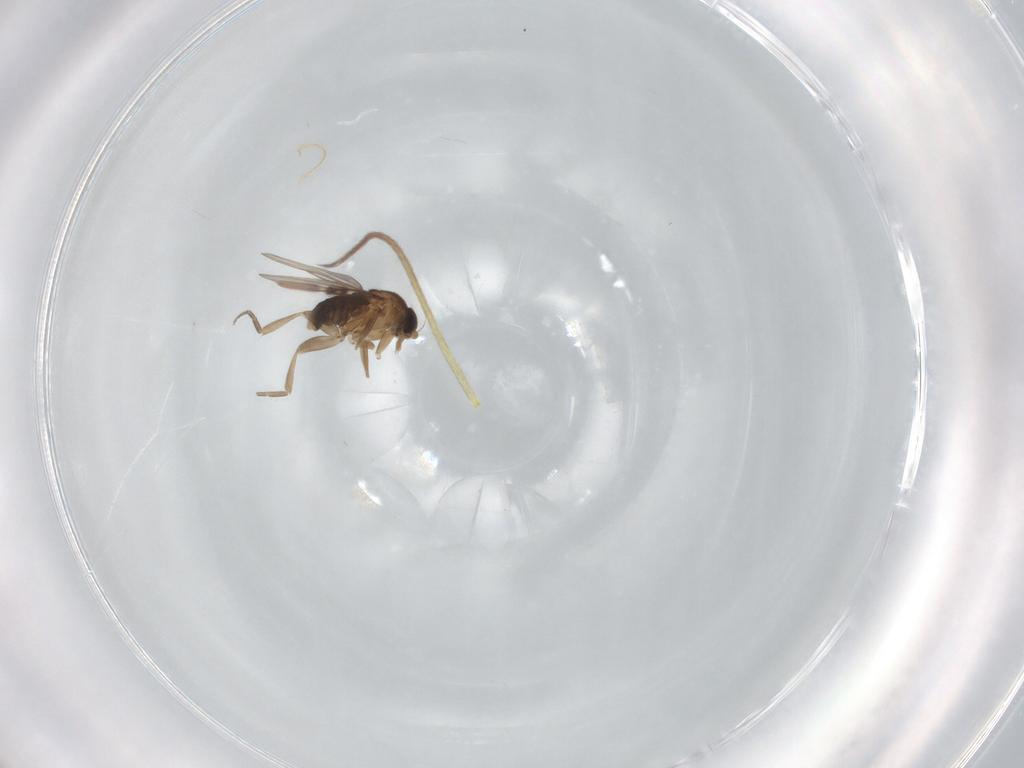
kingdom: Animalia
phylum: Arthropoda
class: Insecta
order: Diptera
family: Phoridae
